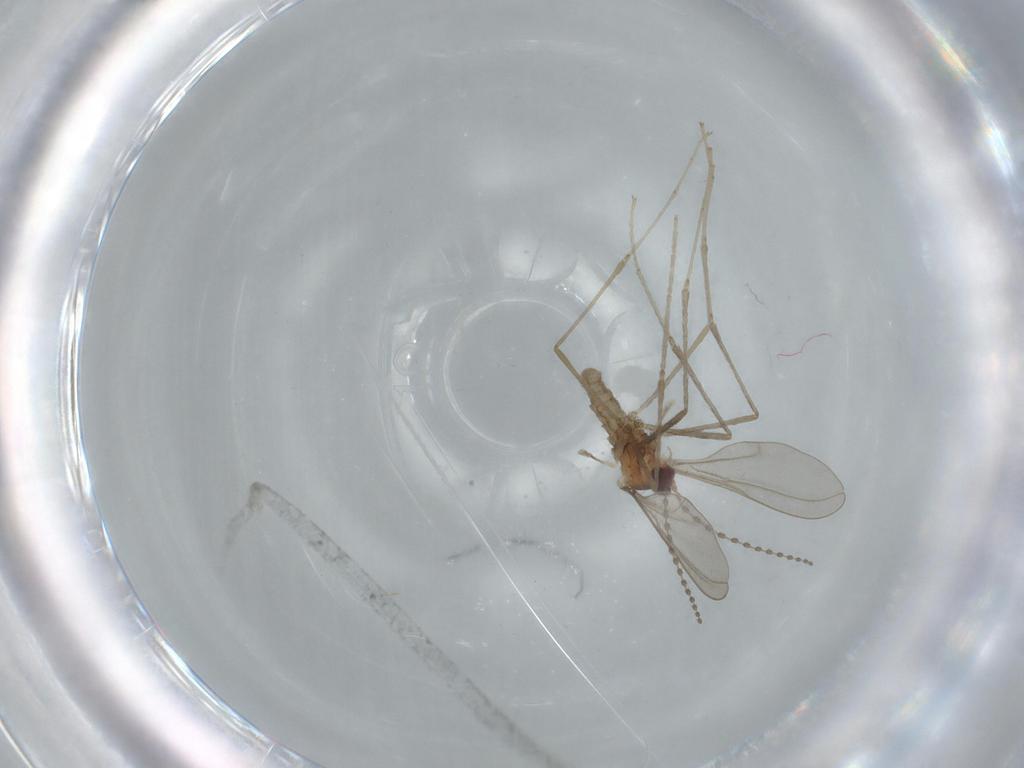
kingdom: Animalia
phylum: Arthropoda
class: Insecta
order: Diptera
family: Cecidomyiidae
